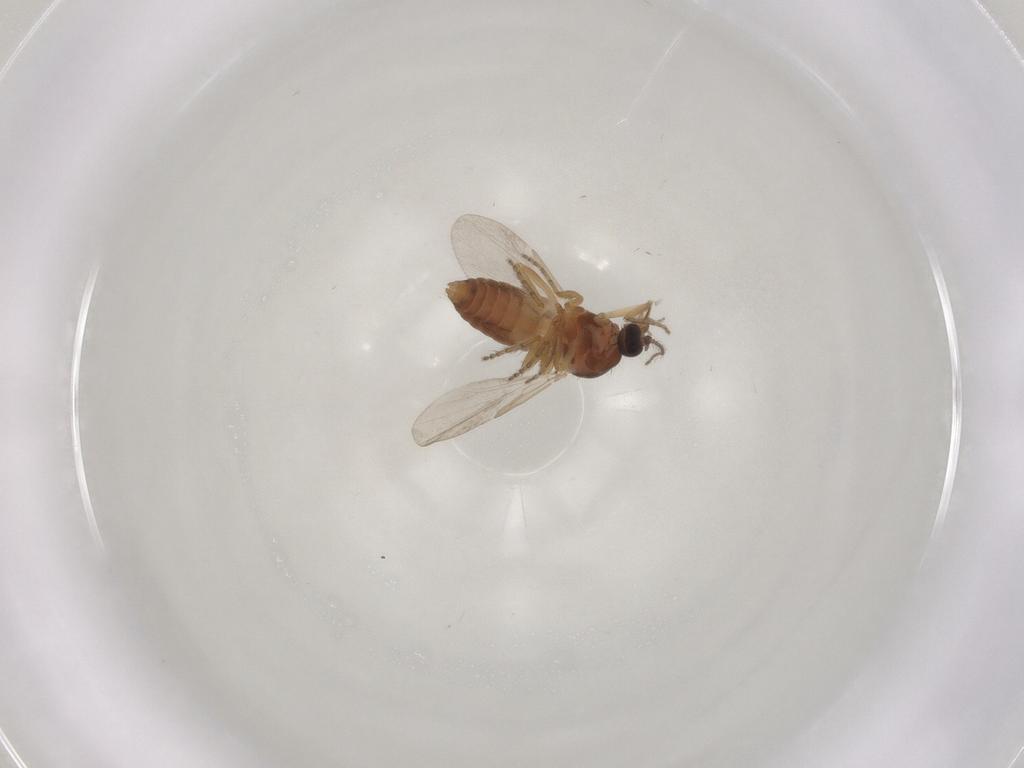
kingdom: Animalia
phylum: Arthropoda
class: Insecta
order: Diptera
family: Ceratopogonidae
